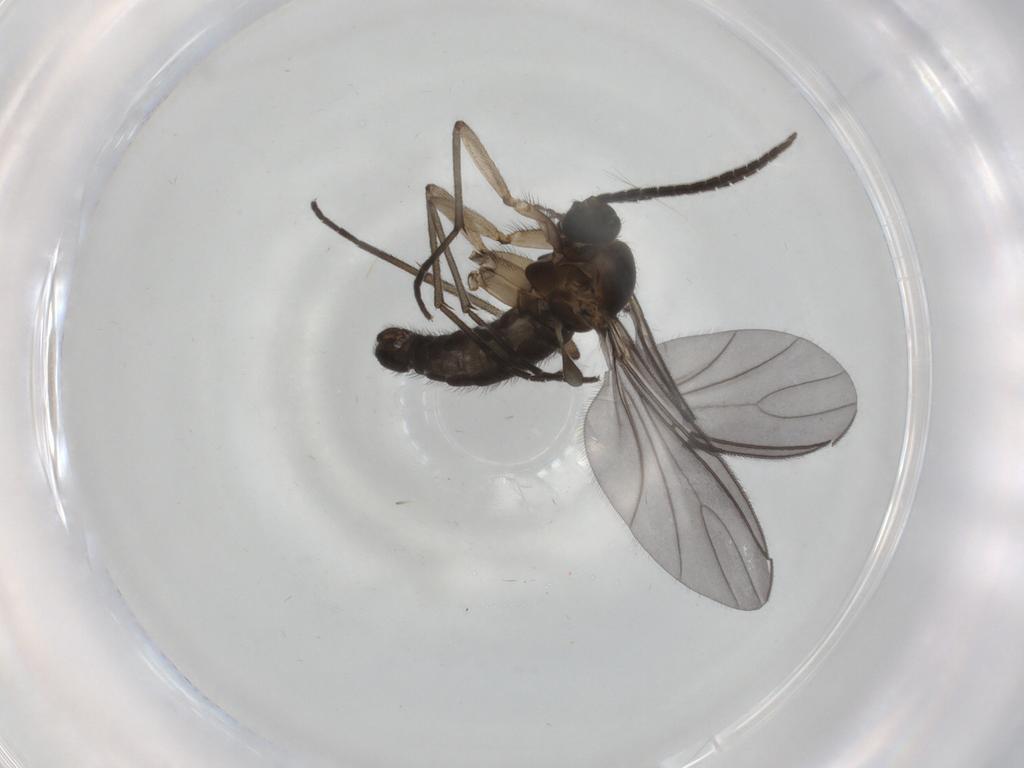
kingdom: Animalia
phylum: Arthropoda
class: Insecta
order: Diptera
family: Sciaridae
